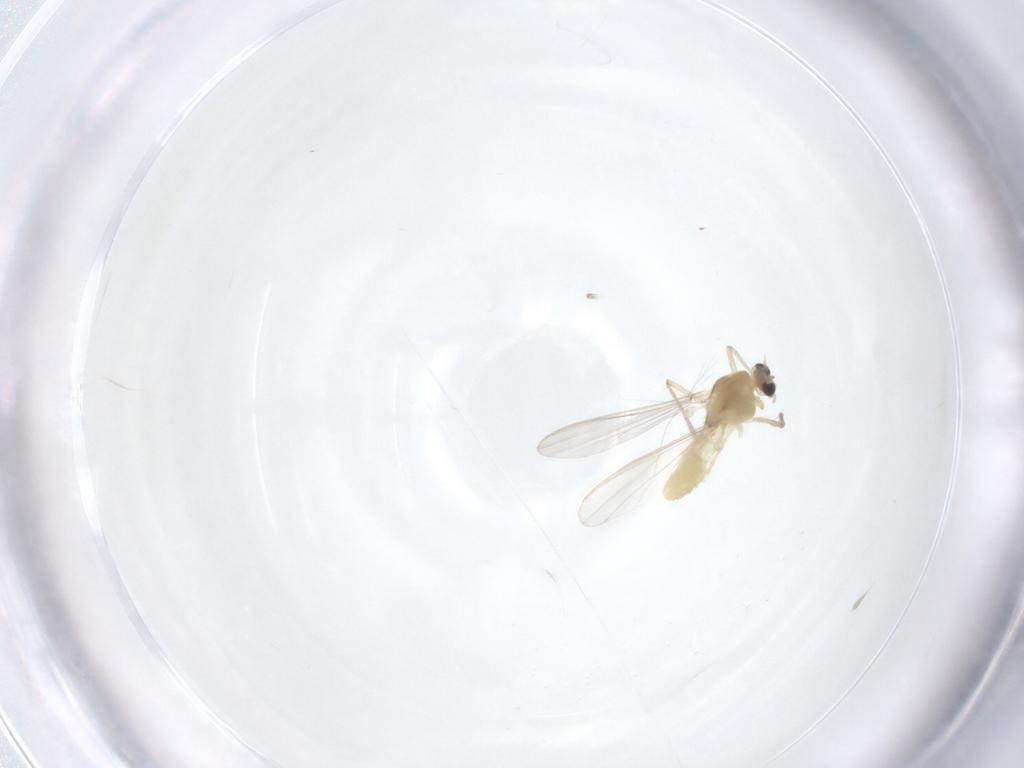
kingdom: Animalia
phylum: Arthropoda
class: Insecta
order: Diptera
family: Chironomidae
